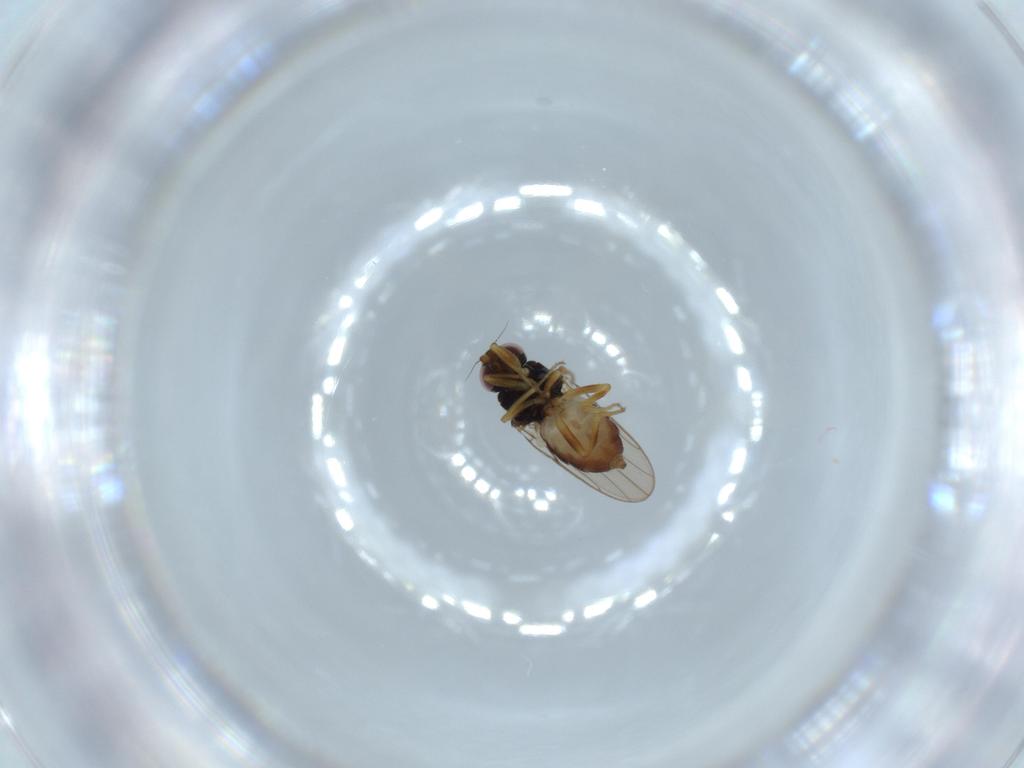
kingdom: Animalia
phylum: Arthropoda
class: Insecta
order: Diptera
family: Chloropidae
